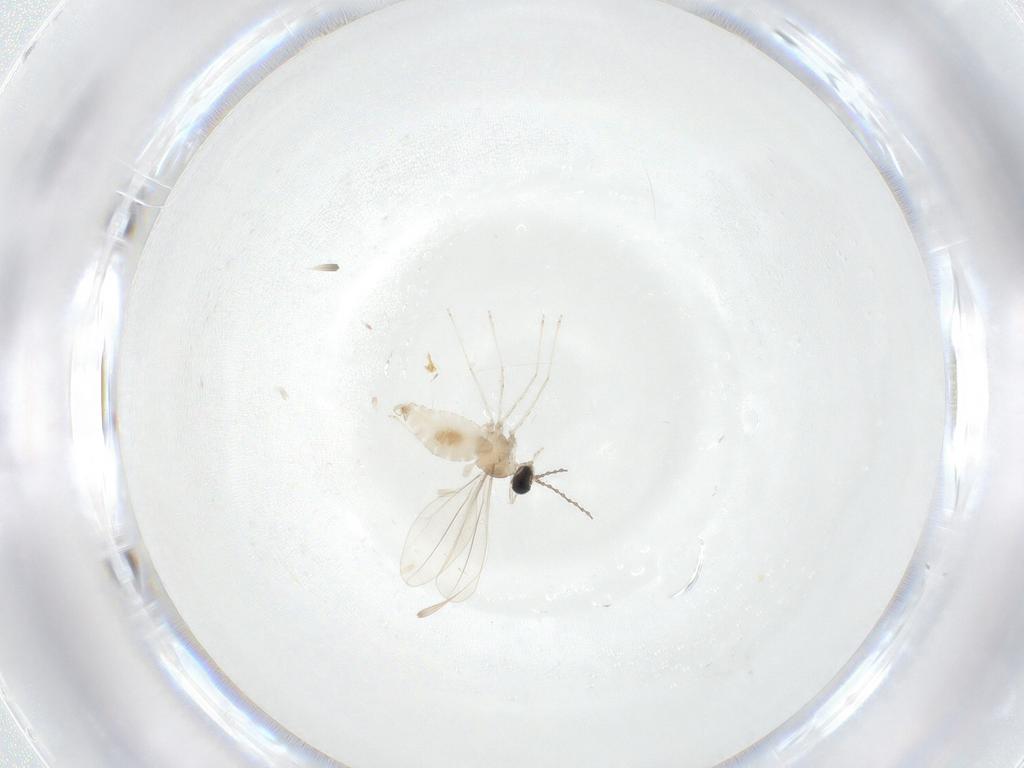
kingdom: Animalia
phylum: Arthropoda
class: Insecta
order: Diptera
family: Cecidomyiidae
